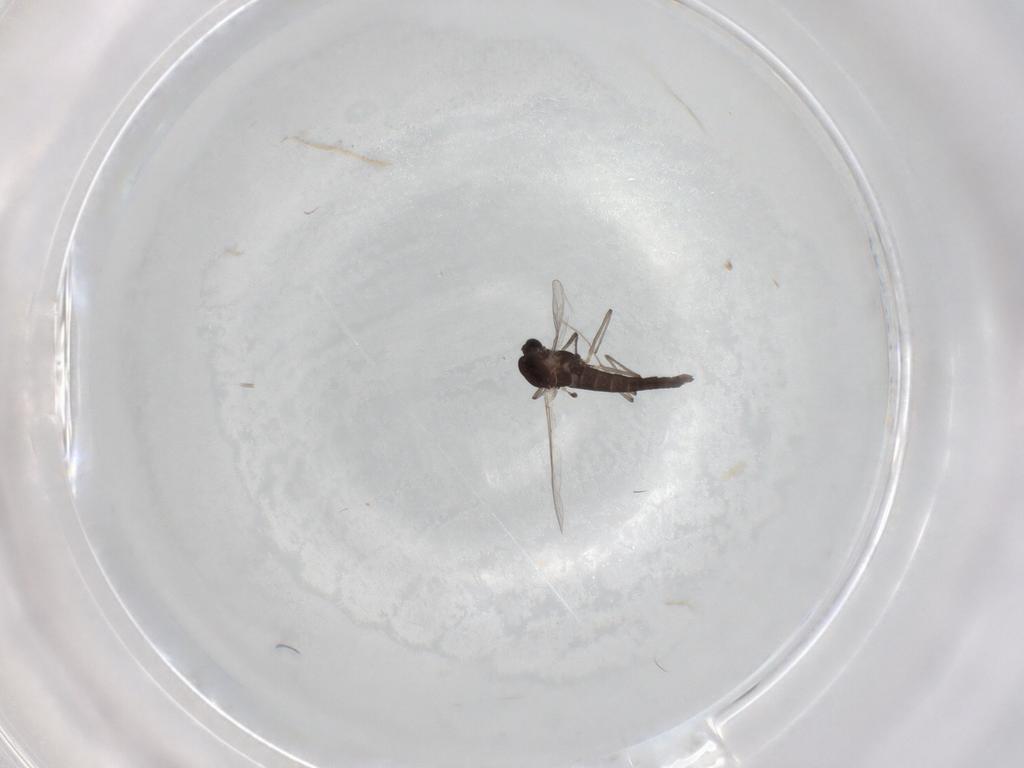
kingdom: Animalia
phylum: Arthropoda
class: Insecta
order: Diptera
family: Chironomidae
